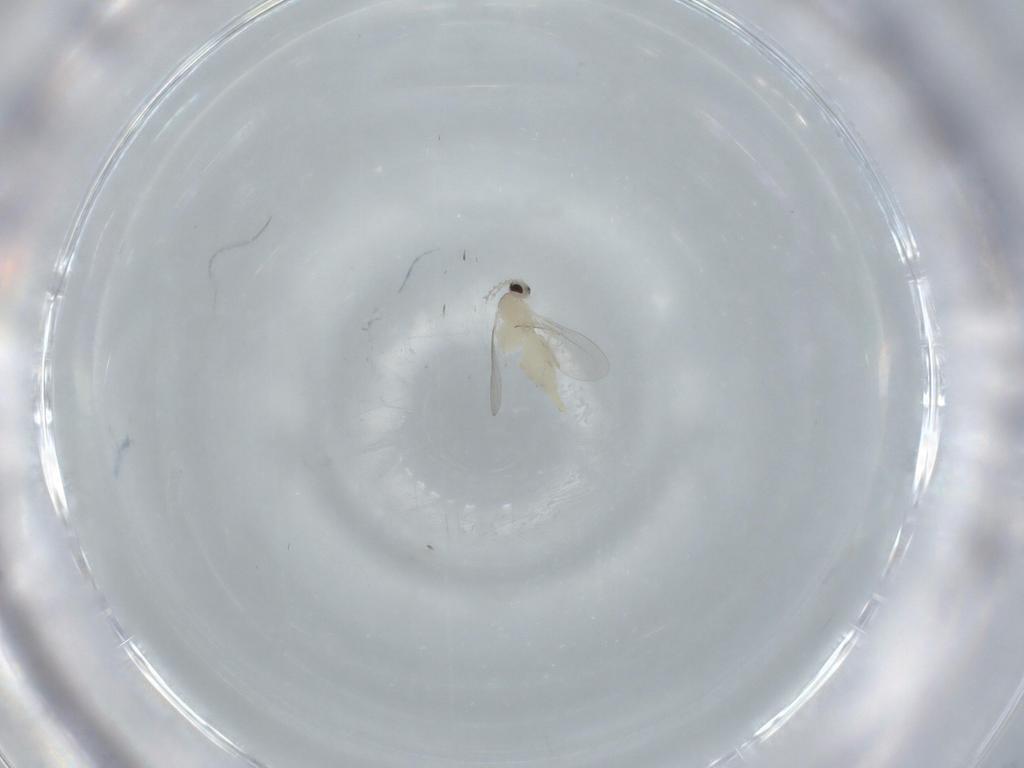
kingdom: Animalia
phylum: Arthropoda
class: Insecta
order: Diptera
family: Cecidomyiidae
